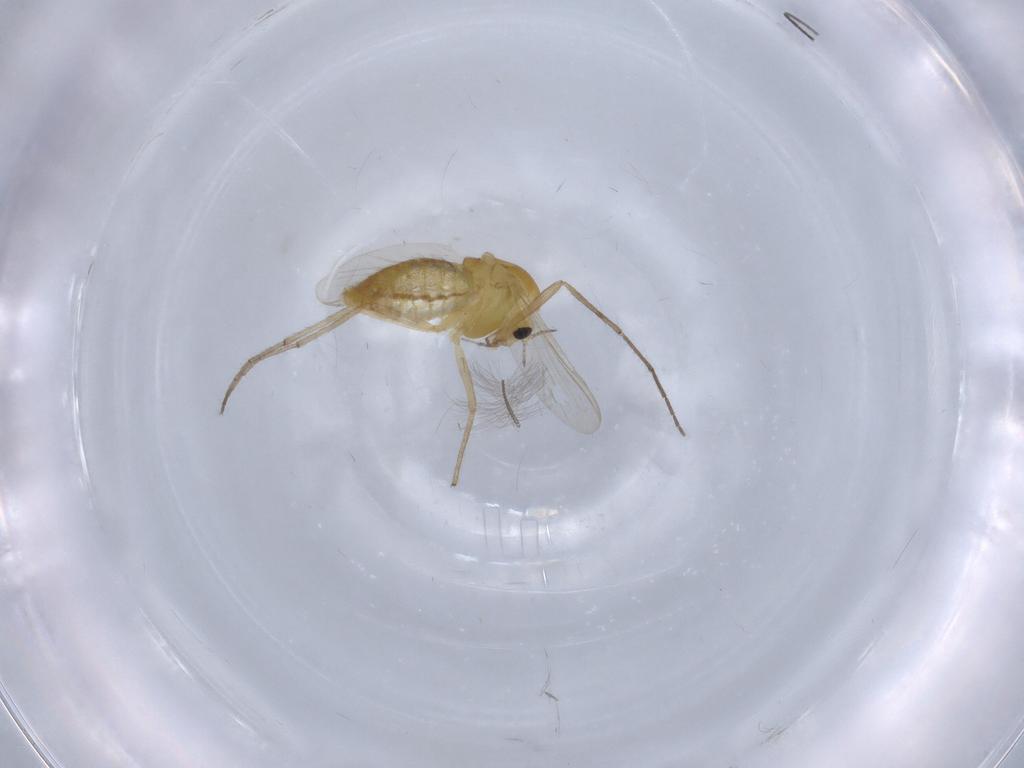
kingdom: Animalia
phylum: Arthropoda
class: Insecta
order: Diptera
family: Chironomidae
